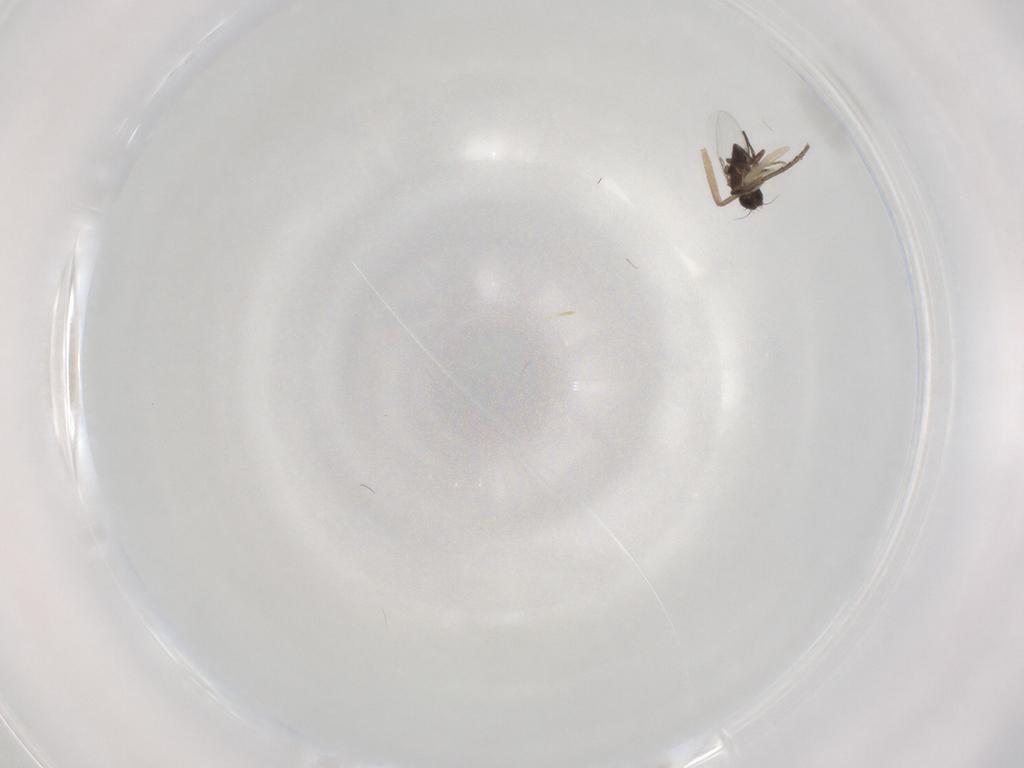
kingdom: Animalia
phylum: Arthropoda
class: Insecta
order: Diptera
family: Phoridae
